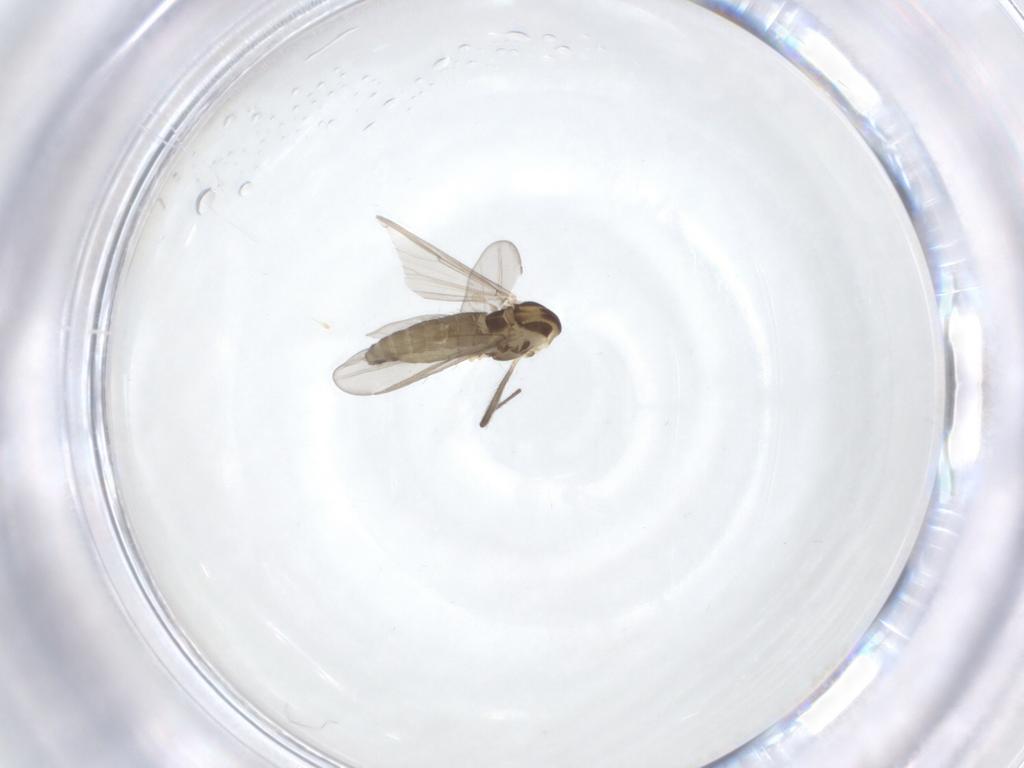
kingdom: Animalia
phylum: Arthropoda
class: Insecta
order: Diptera
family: Chironomidae
